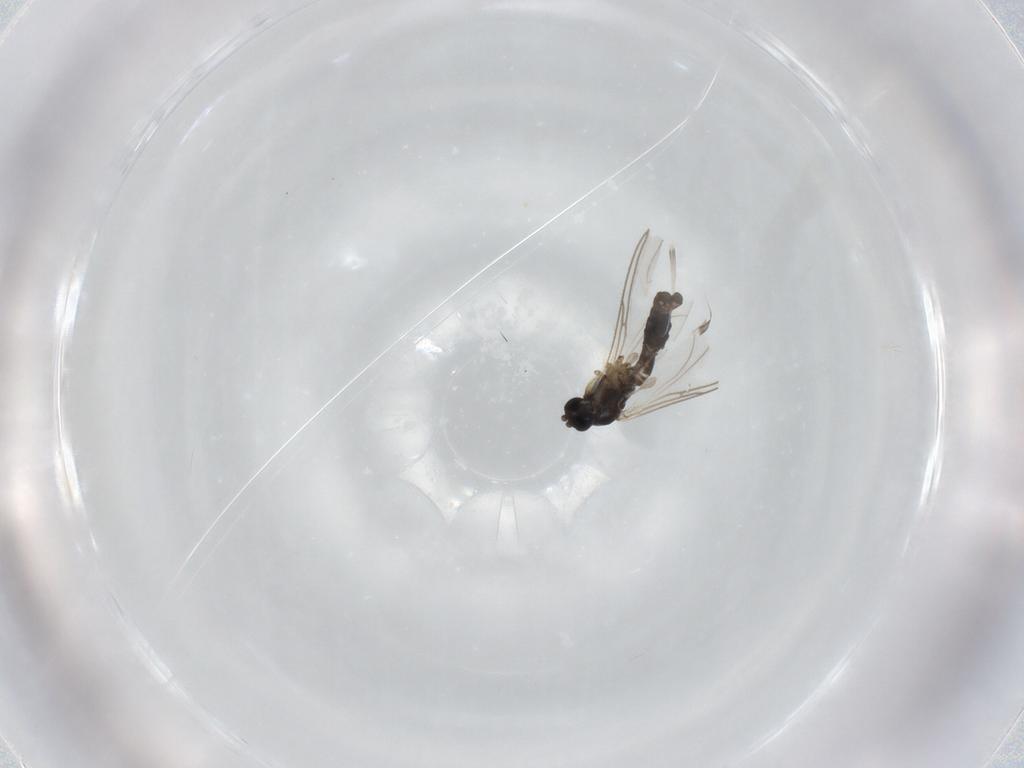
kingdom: Animalia
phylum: Arthropoda
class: Insecta
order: Diptera
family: Sciaridae
